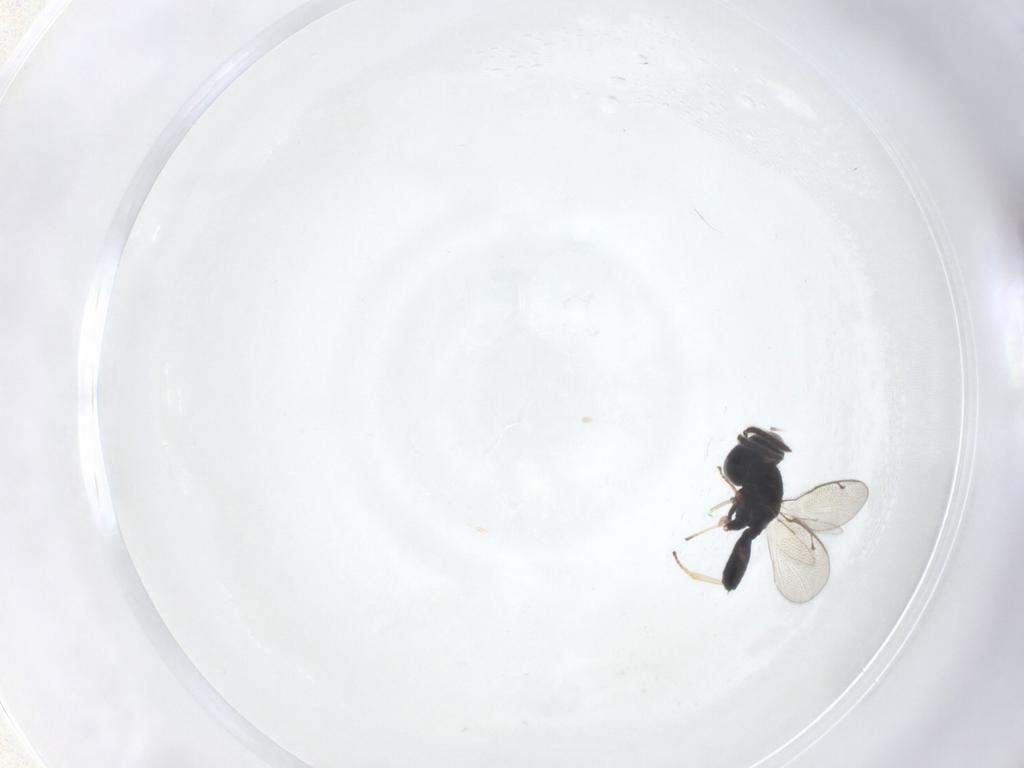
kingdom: Animalia
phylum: Arthropoda
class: Insecta
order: Hymenoptera
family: Pteromalidae
